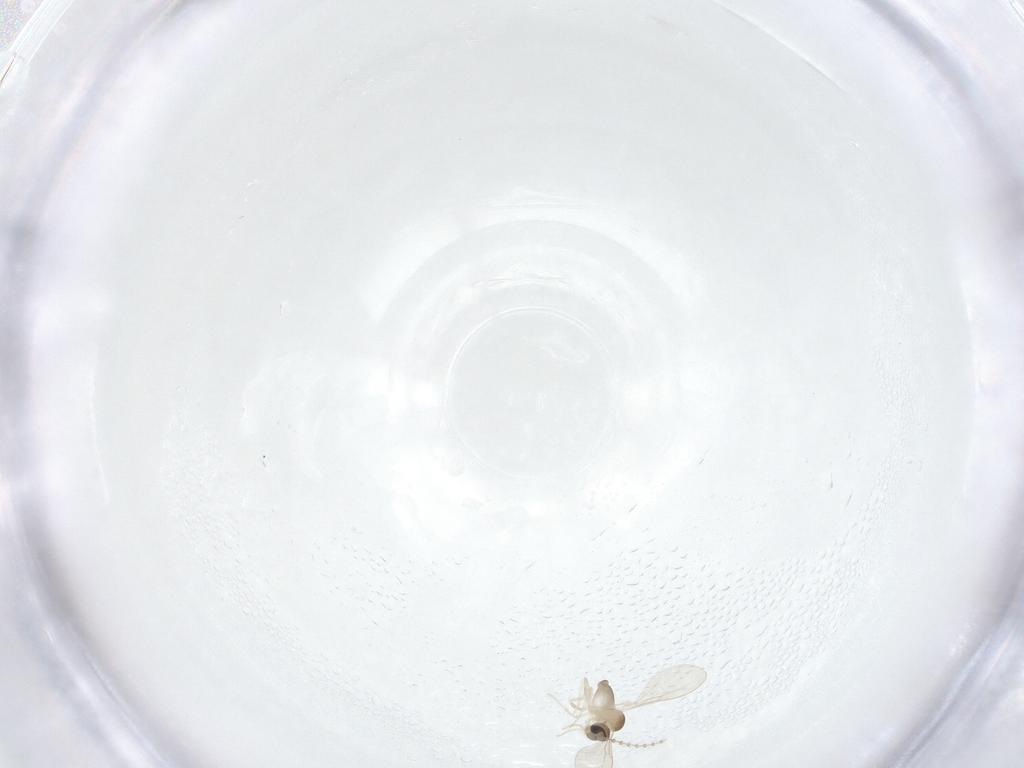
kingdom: Animalia
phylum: Arthropoda
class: Insecta
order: Diptera
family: Cecidomyiidae
